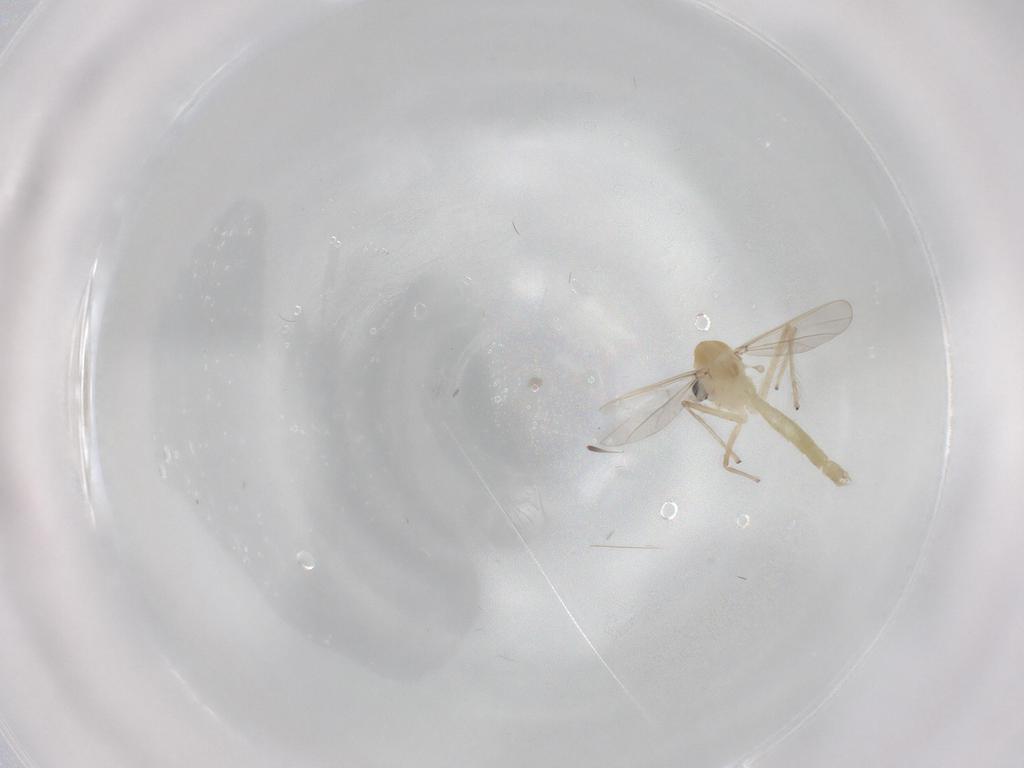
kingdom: Animalia
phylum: Arthropoda
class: Insecta
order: Diptera
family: Chironomidae
